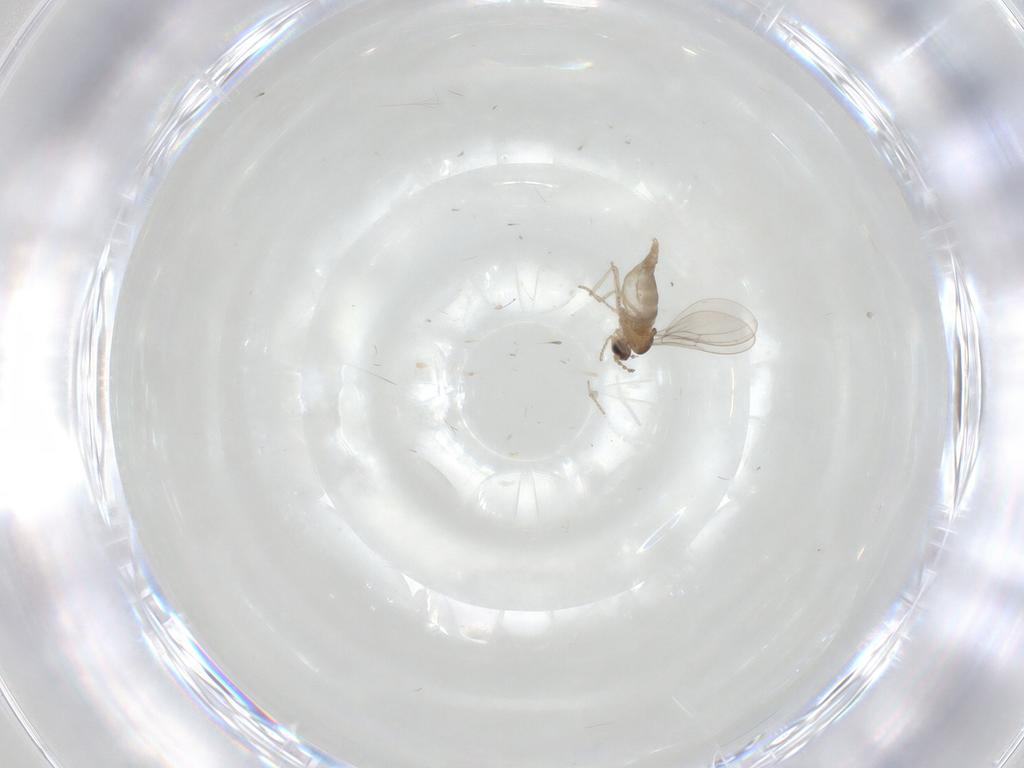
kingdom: Animalia
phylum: Arthropoda
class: Insecta
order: Diptera
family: Cecidomyiidae
